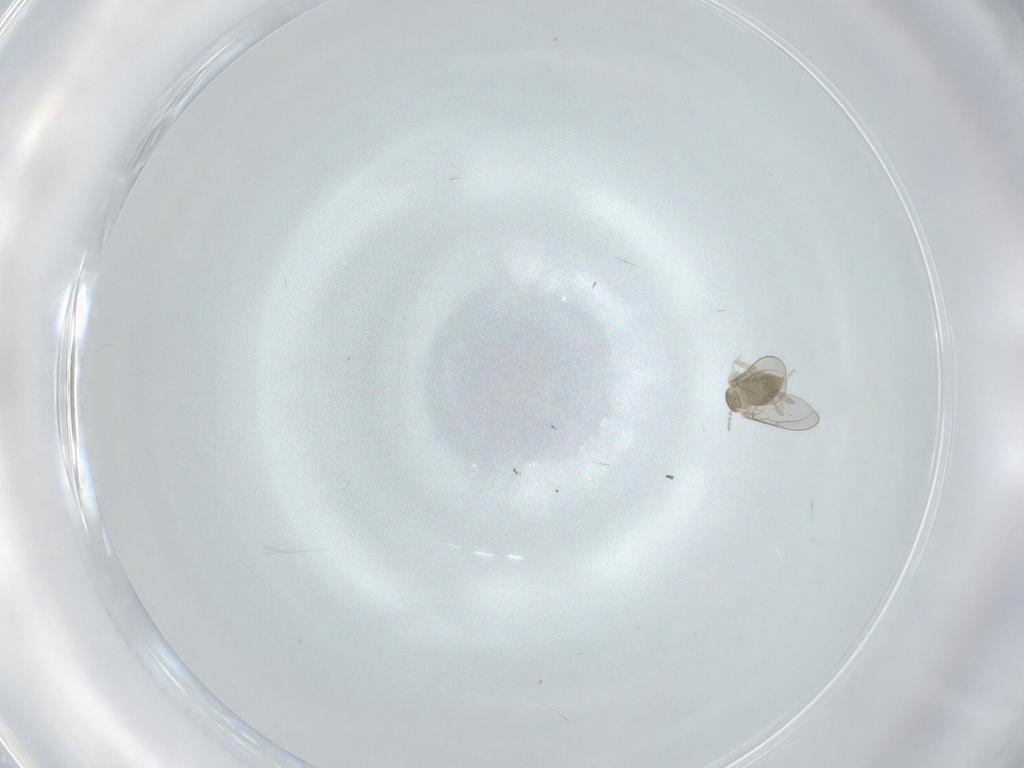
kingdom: Animalia
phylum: Arthropoda
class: Insecta
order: Diptera
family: Cecidomyiidae
